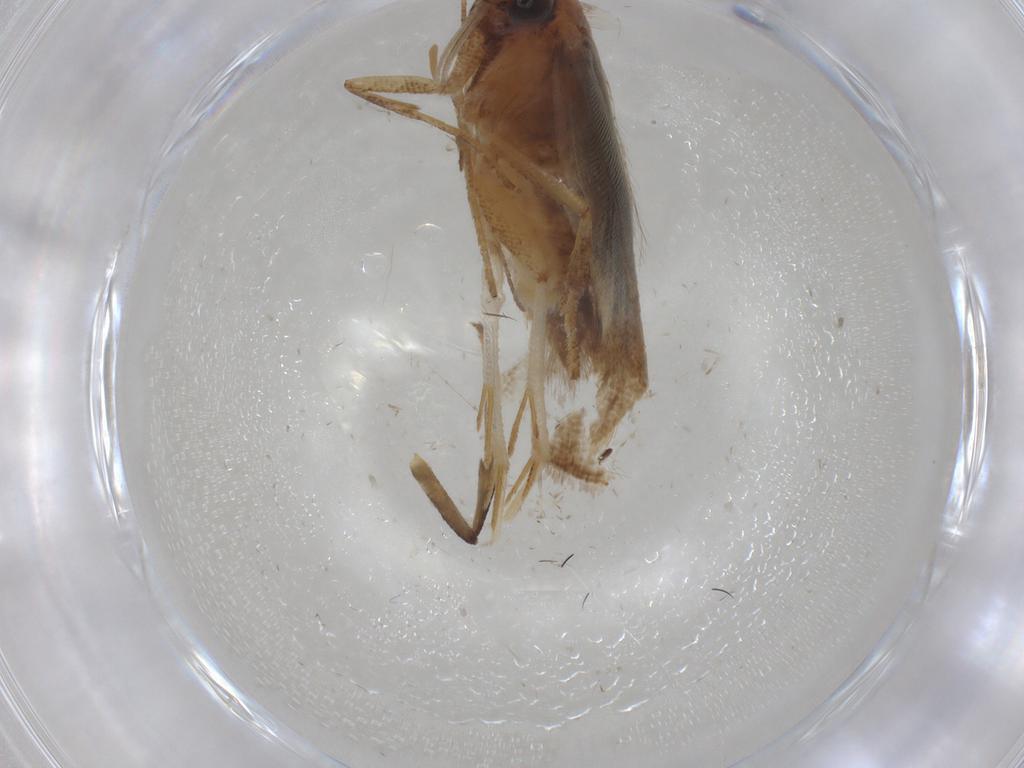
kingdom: Animalia
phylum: Arthropoda
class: Insecta
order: Lepidoptera
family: Gelechiidae
